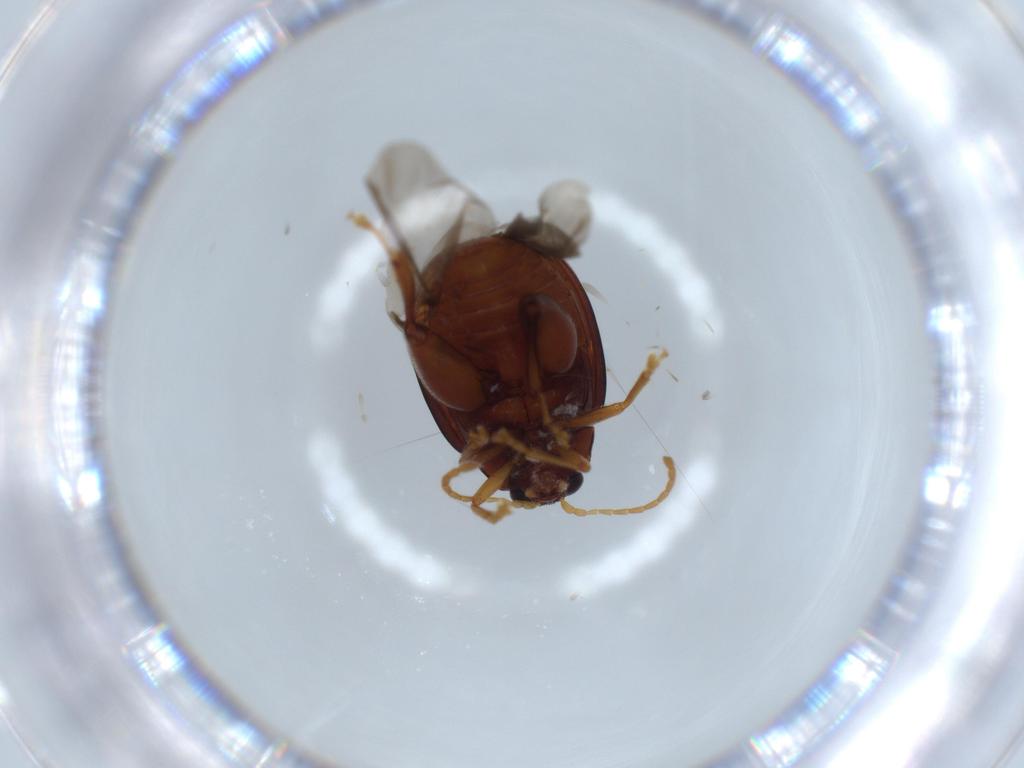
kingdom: Animalia
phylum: Arthropoda
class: Insecta
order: Coleoptera
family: Chrysomelidae
